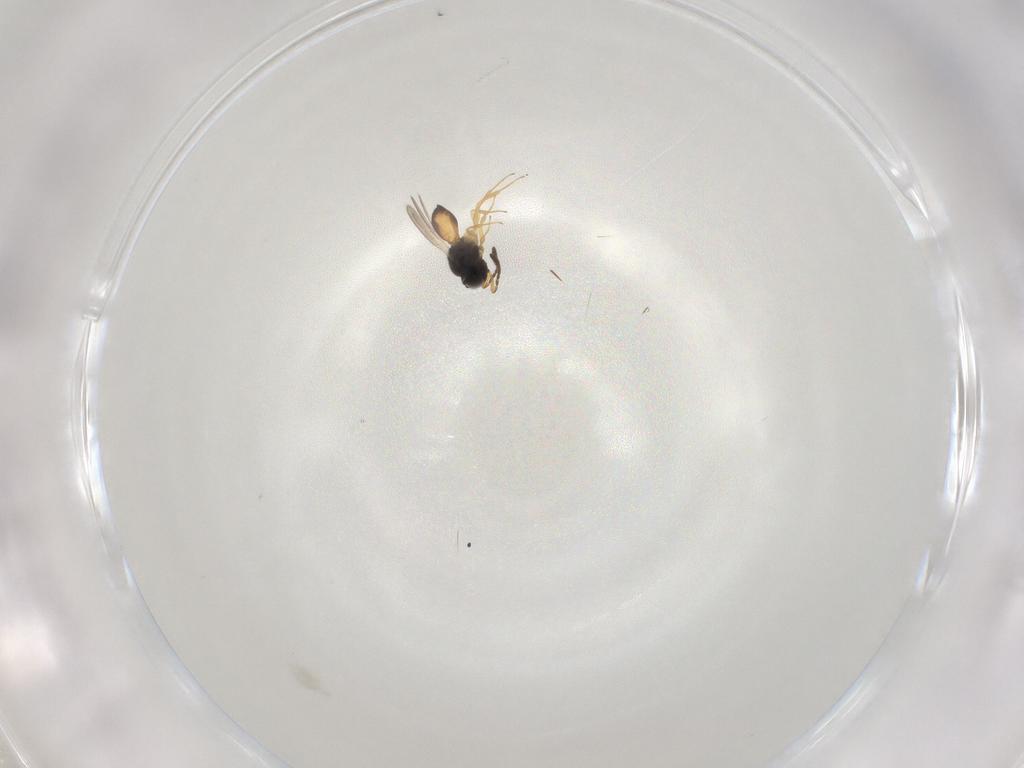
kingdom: Animalia
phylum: Arthropoda
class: Insecta
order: Hymenoptera
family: Scelionidae
